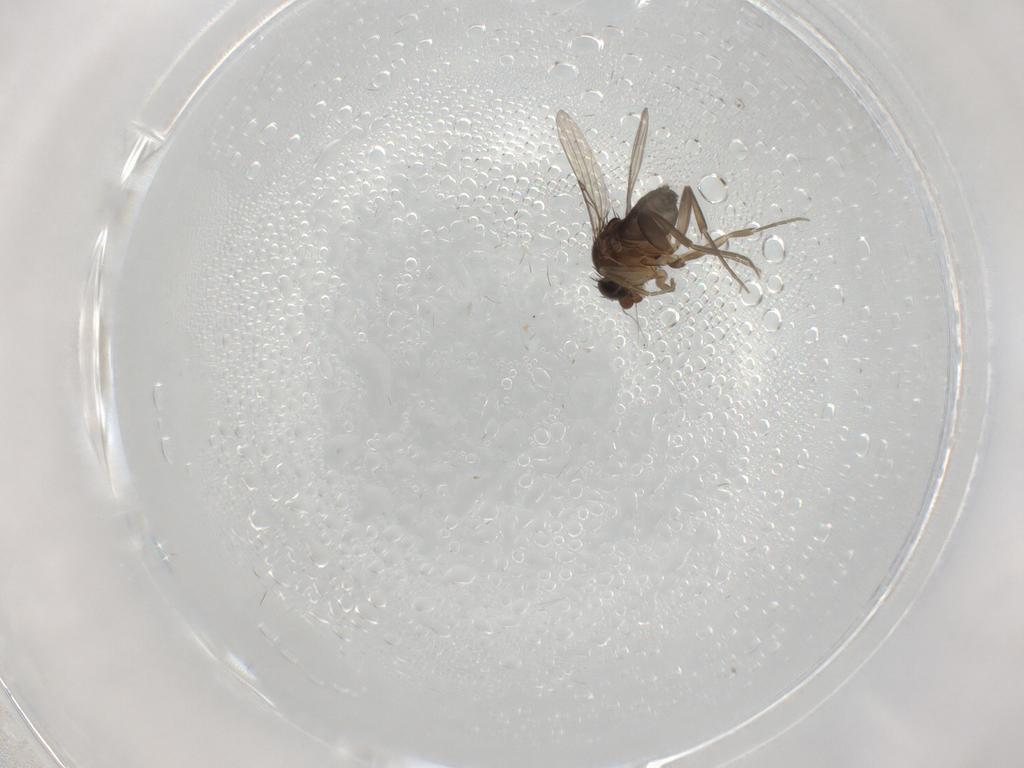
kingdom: Animalia
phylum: Arthropoda
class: Insecta
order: Diptera
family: Phoridae
